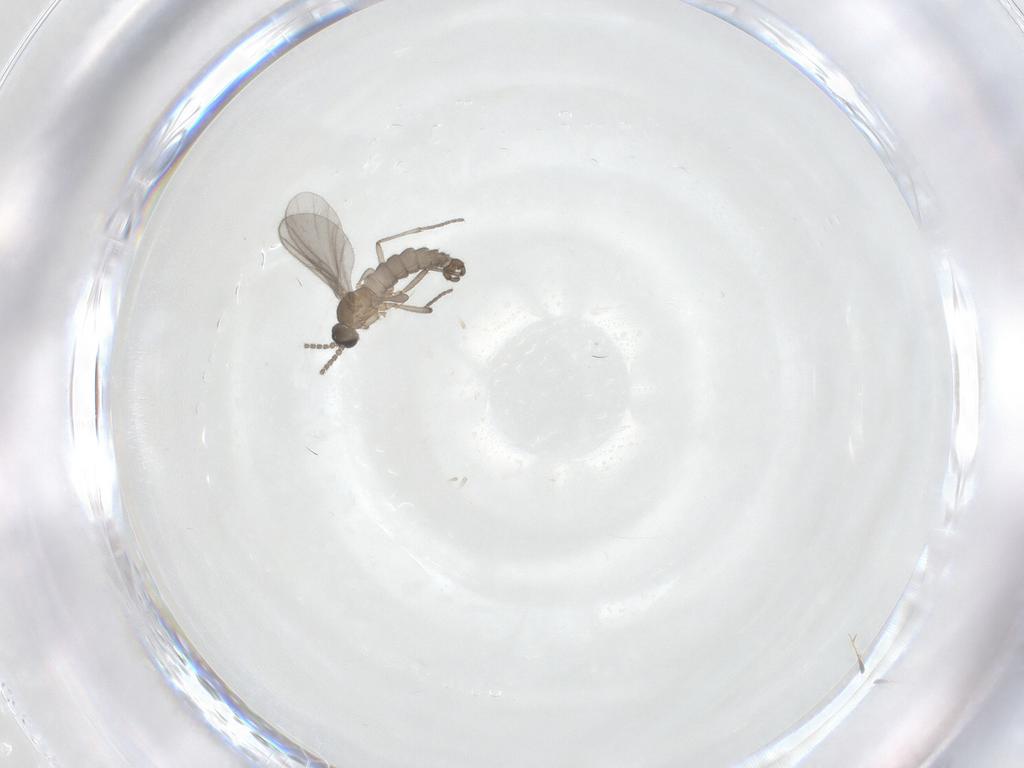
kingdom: Animalia
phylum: Arthropoda
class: Insecta
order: Diptera
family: Sciaridae
